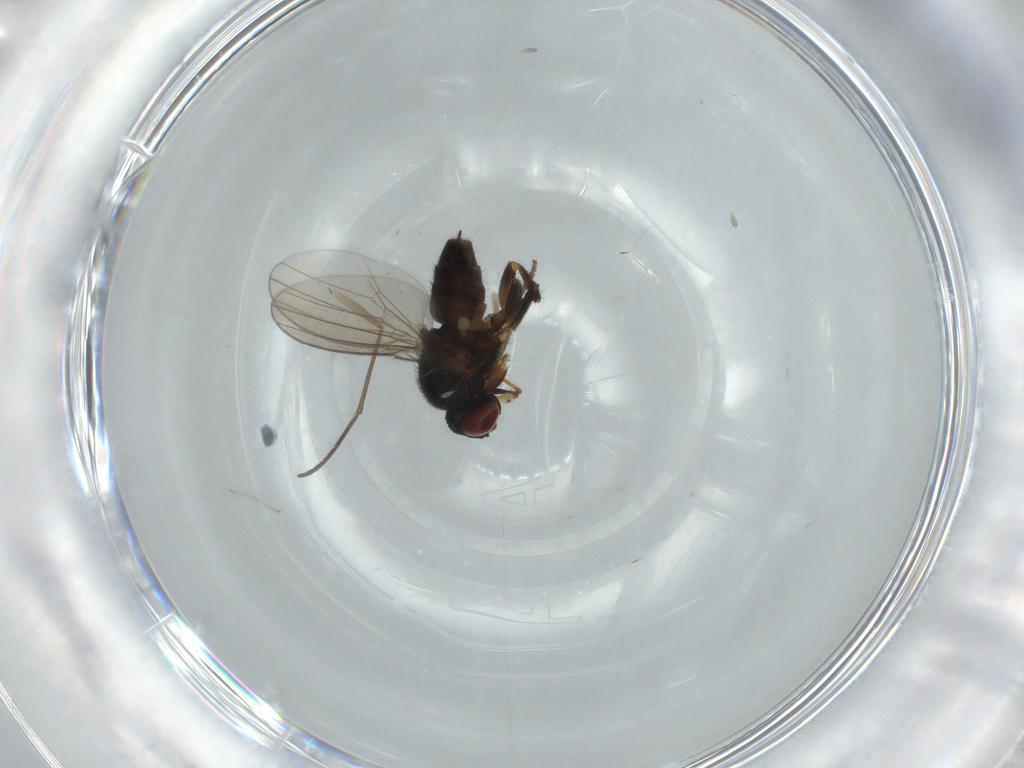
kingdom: Animalia
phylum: Arthropoda
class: Insecta
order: Diptera
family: Milichiidae
